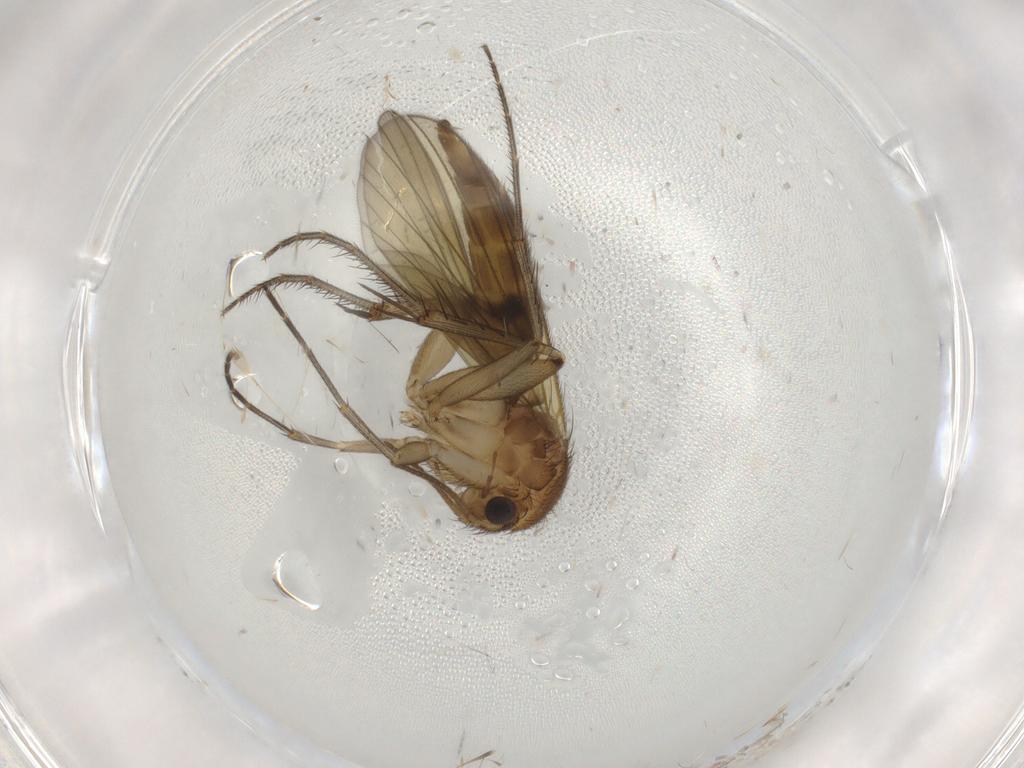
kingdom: Animalia
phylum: Arthropoda
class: Insecta
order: Diptera
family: Mycetophilidae
